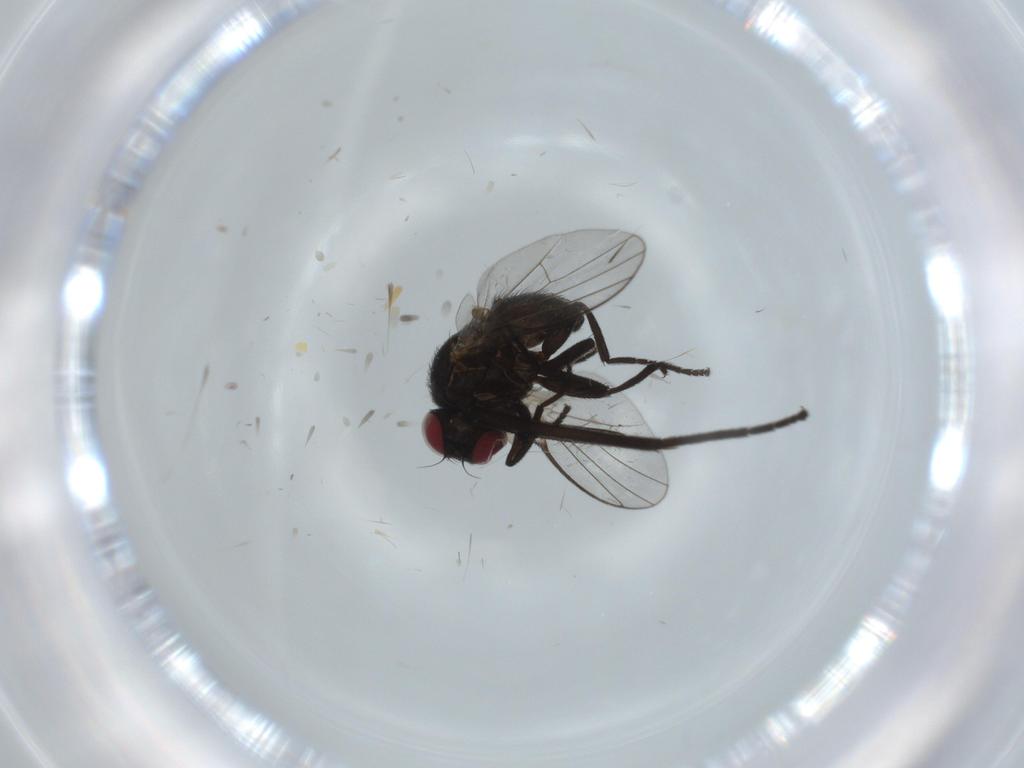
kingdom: Animalia
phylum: Arthropoda
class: Insecta
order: Diptera
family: Agromyzidae
